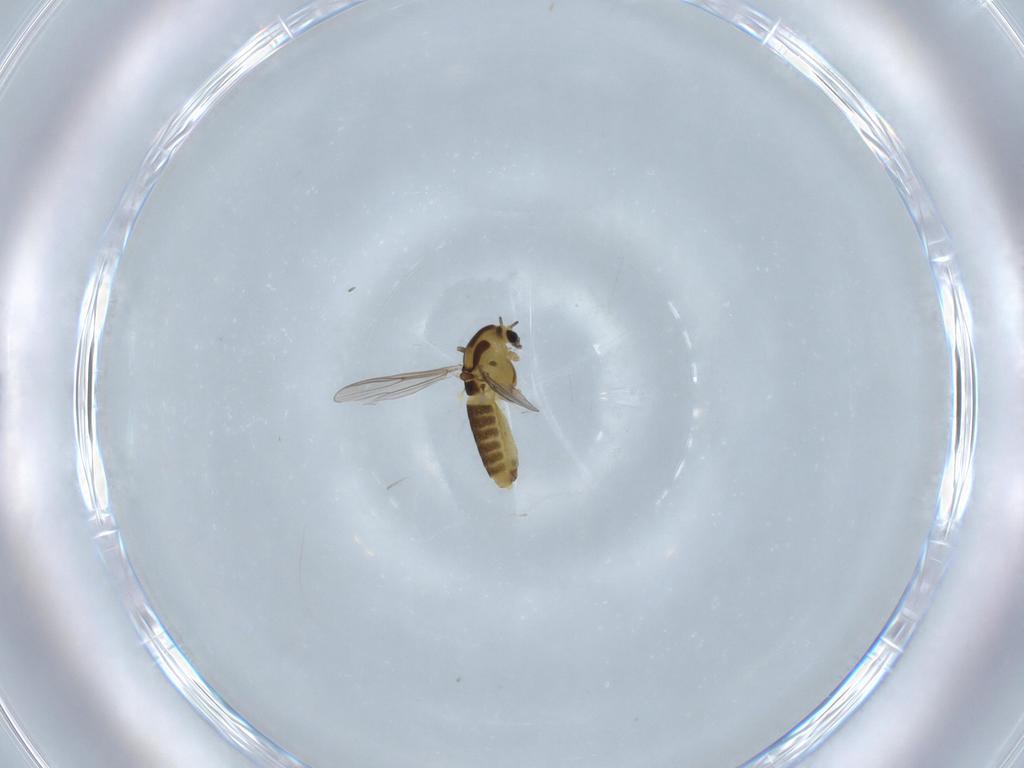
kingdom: Animalia
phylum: Arthropoda
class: Insecta
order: Diptera
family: Chironomidae
